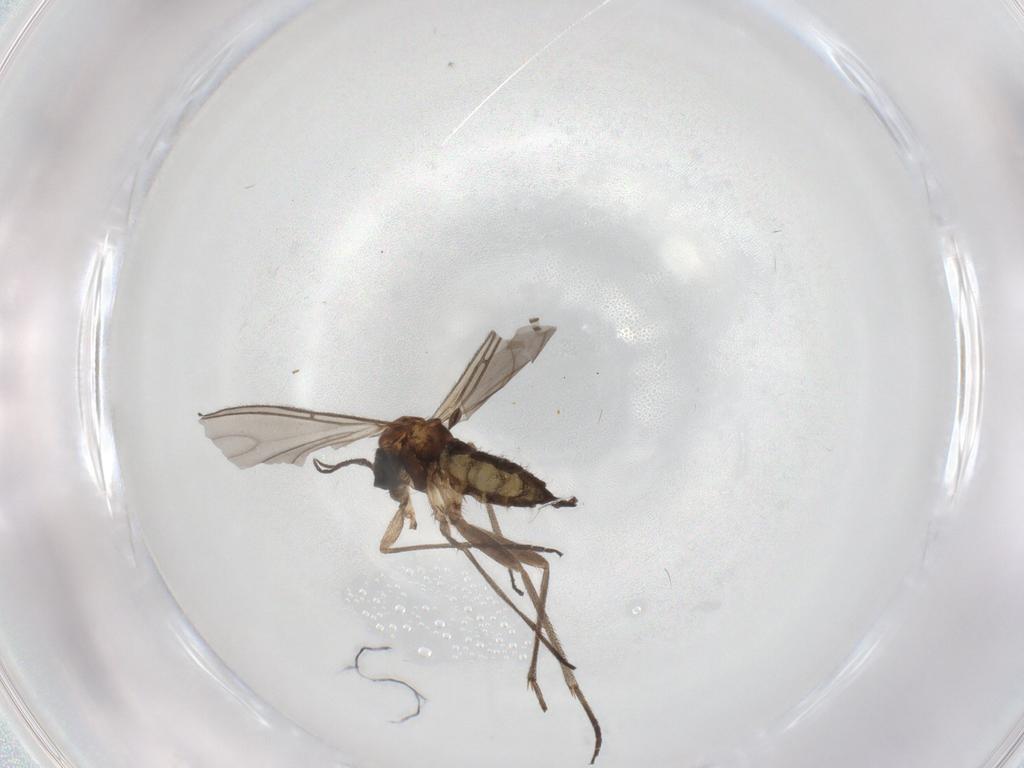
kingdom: Animalia
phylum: Arthropoda
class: Insecta
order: Diptera
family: Sciaridae
